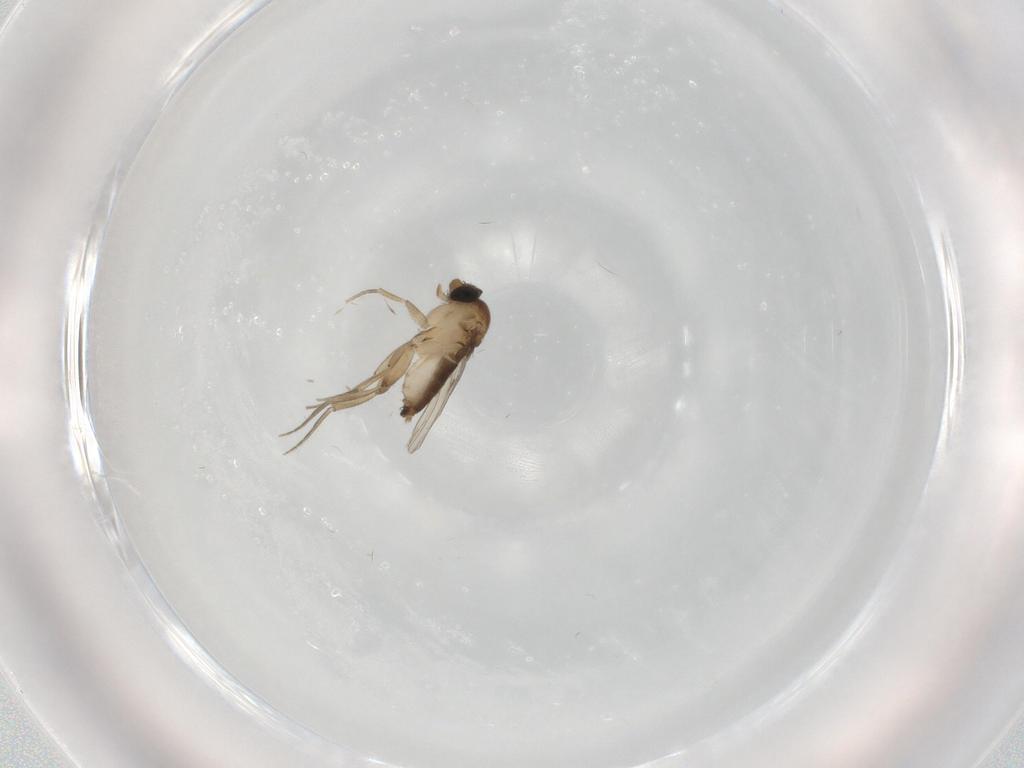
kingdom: Animalia
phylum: Arthropoda
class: Insecta
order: Diptera
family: Phoridae
